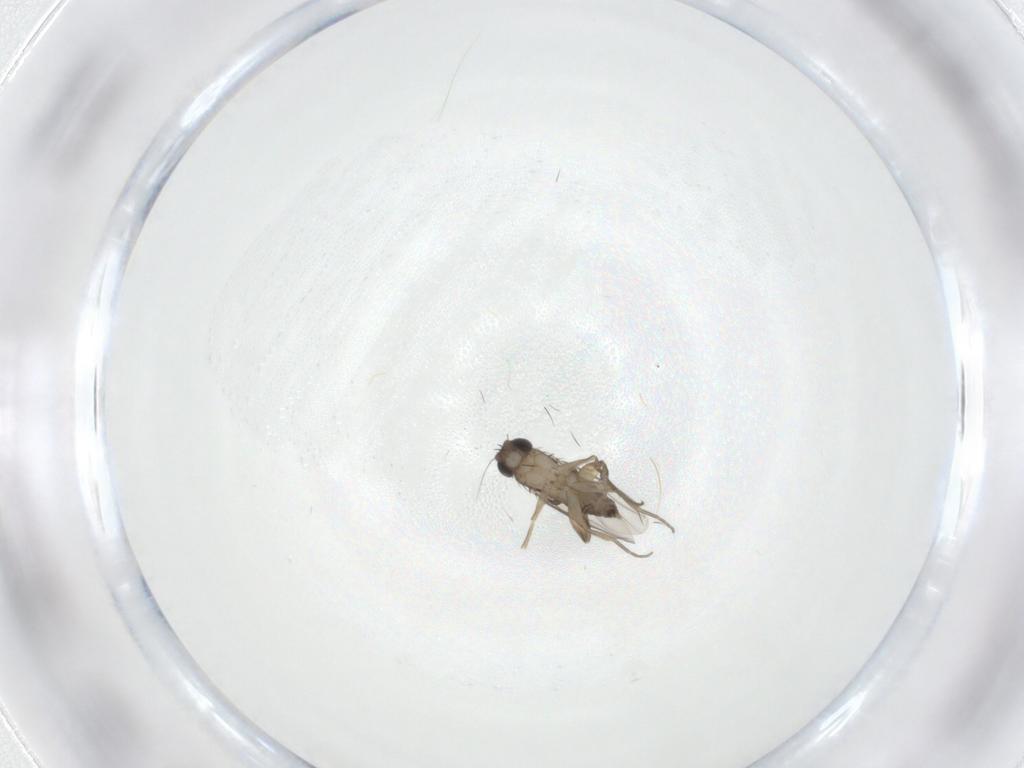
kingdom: Animalia
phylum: Arthropoda
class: Insecta
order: Diptera
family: Phoridae
